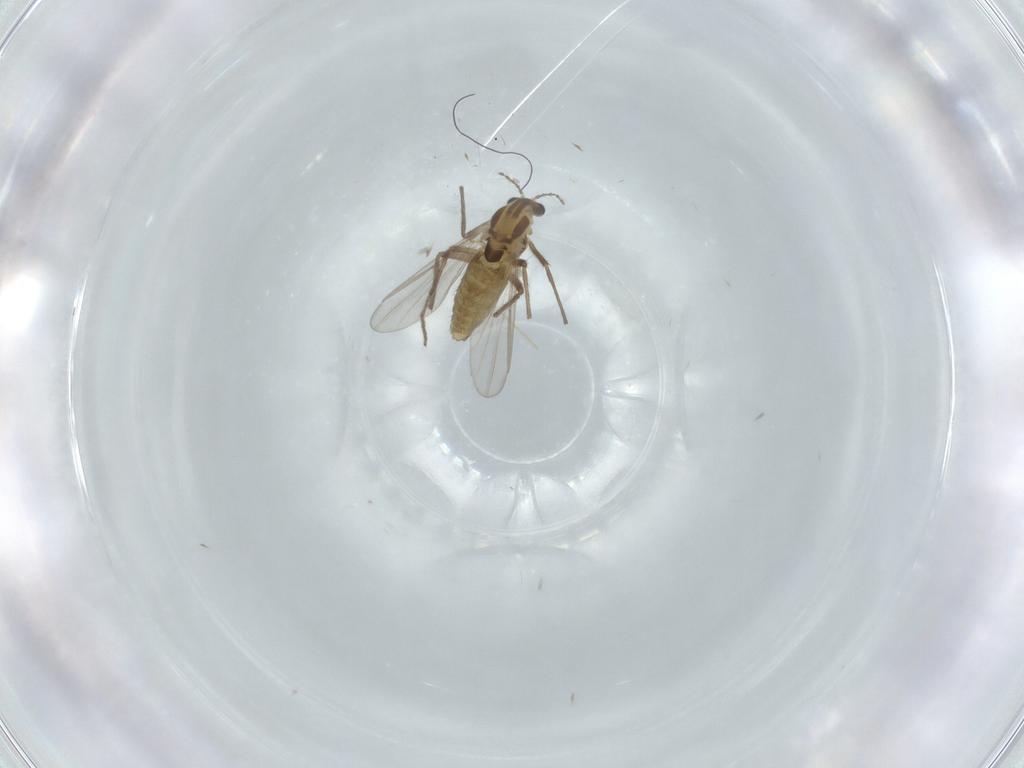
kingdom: Animalia
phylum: Arthropoda
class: Insecta
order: Diptera
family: Chironomidae
